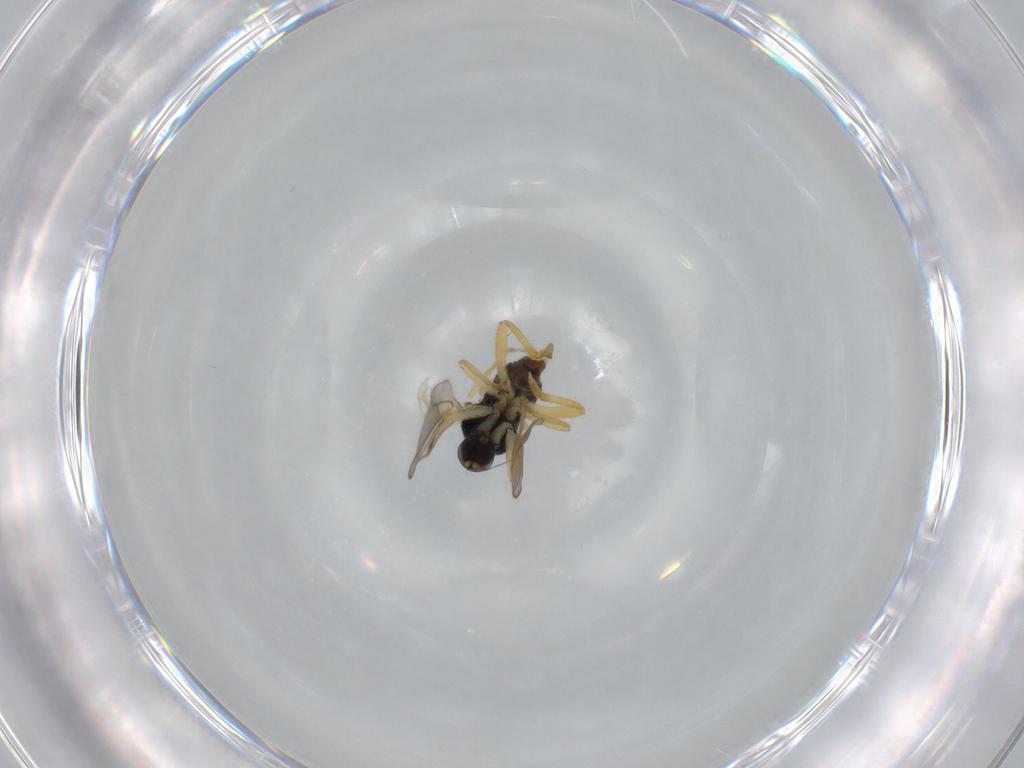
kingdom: Animalia
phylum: Arthropoda
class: Insecta
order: Diptera
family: Hybotidae
